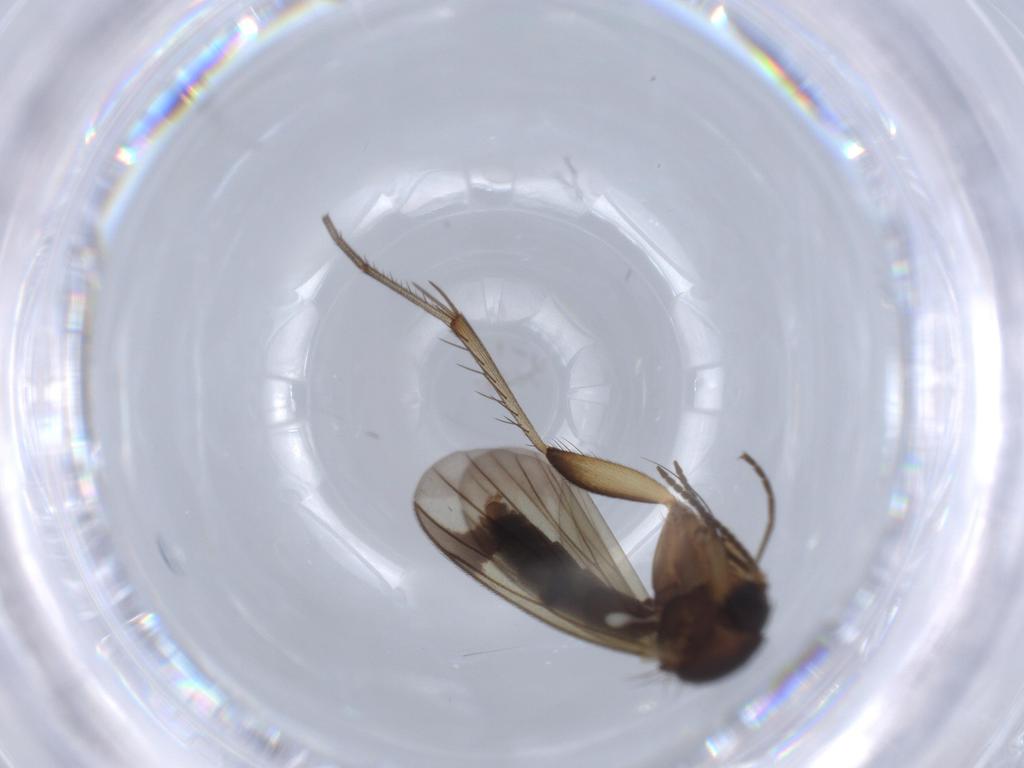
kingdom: Animalia
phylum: Arthropoda
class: Insecta
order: Diptera
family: Mycetophilidae
